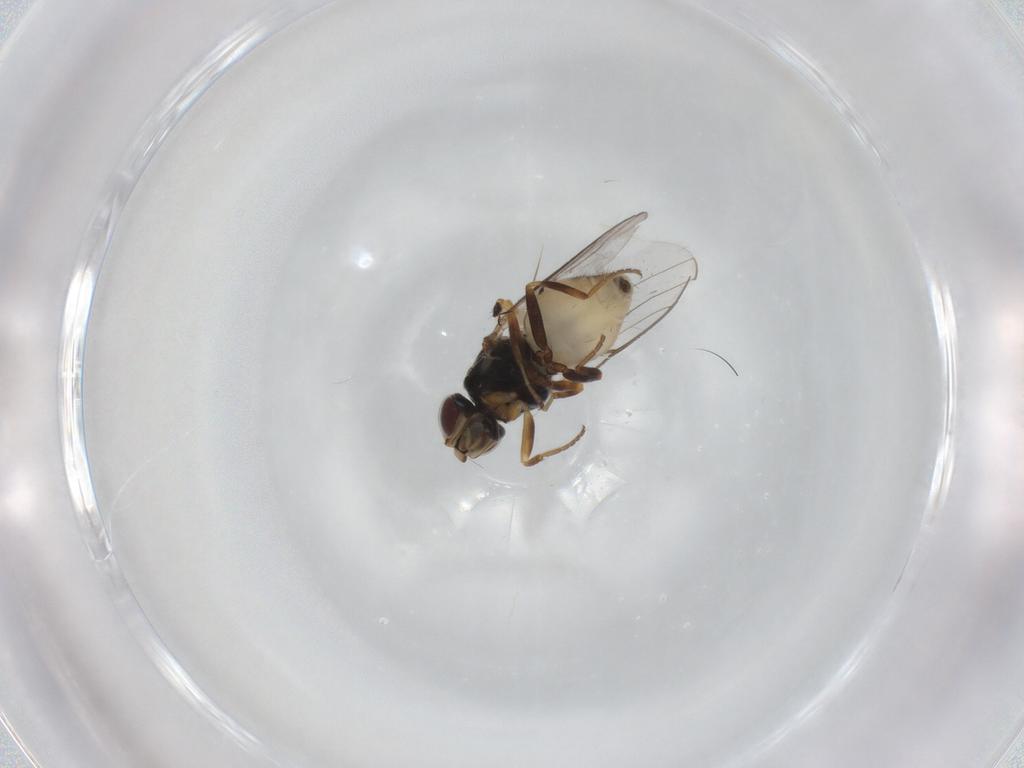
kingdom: Animalia
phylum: Arthropoda
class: Insecta
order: Diptera
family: Chloropidae
